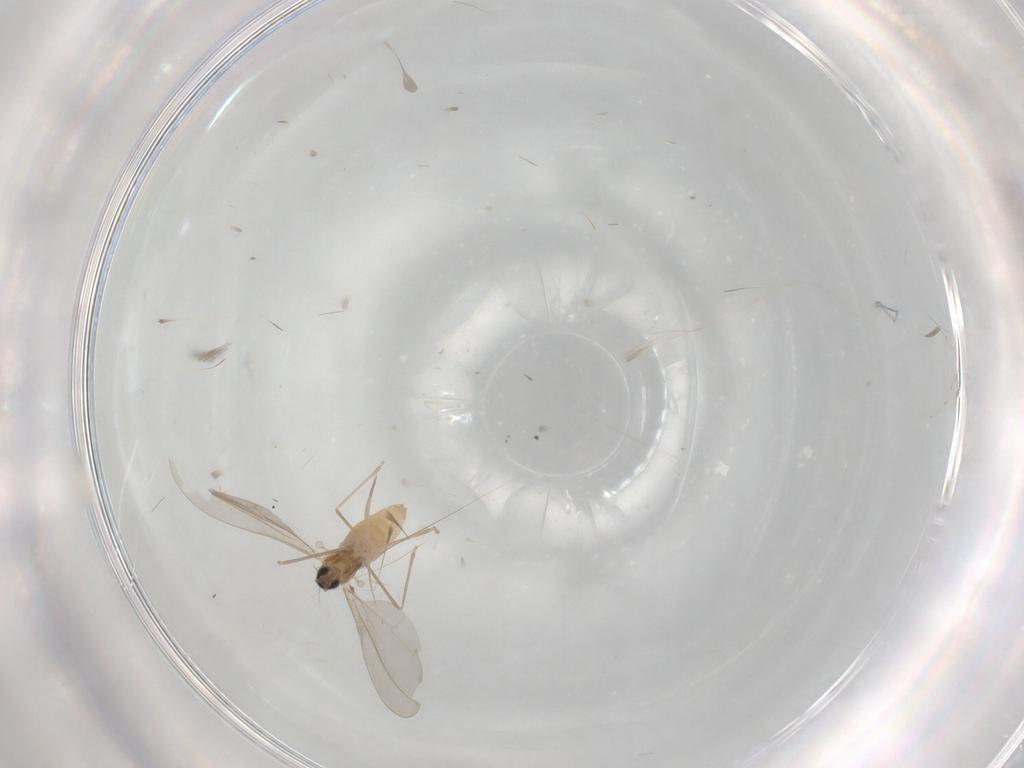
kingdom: Animalia
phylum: Arthropoda
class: Insecta
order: Diptera
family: Cecidomyiidae
